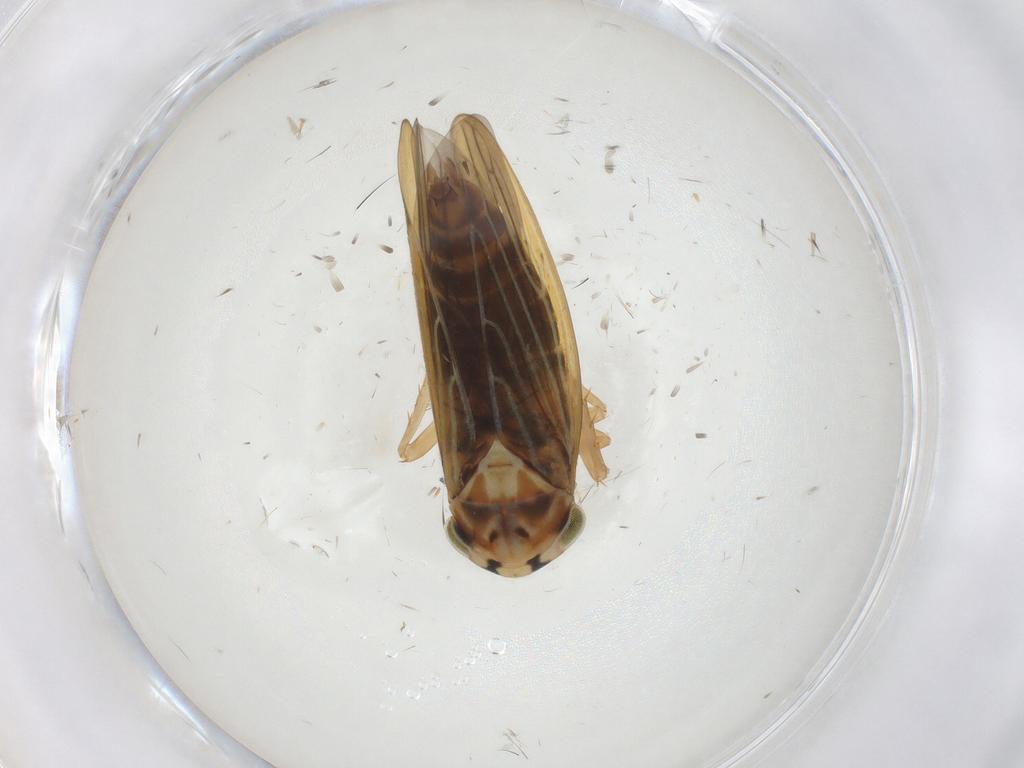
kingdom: Animalia
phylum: Arthropoda
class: Insecta
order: Hemiptera
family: Cicadellidae
